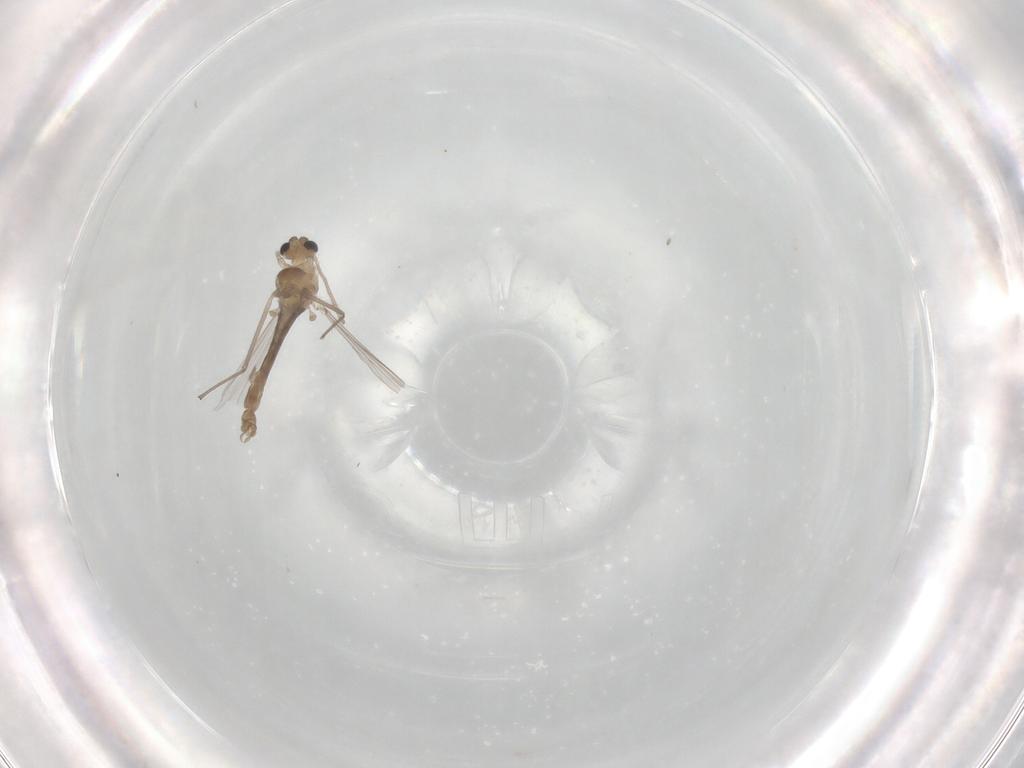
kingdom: Animalia
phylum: Arthropoda
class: Insecta
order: Diptera
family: Chironomidae
